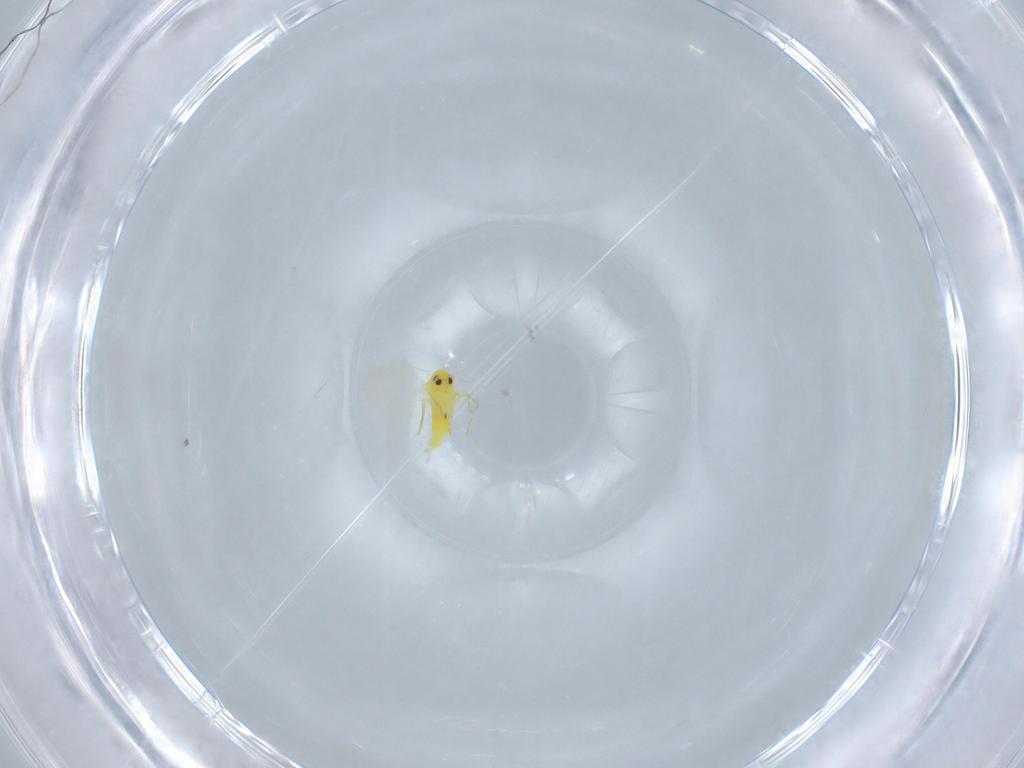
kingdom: Animalia
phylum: Arthropoda
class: Insecta
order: Hemiptera
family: Aleyrodidae
